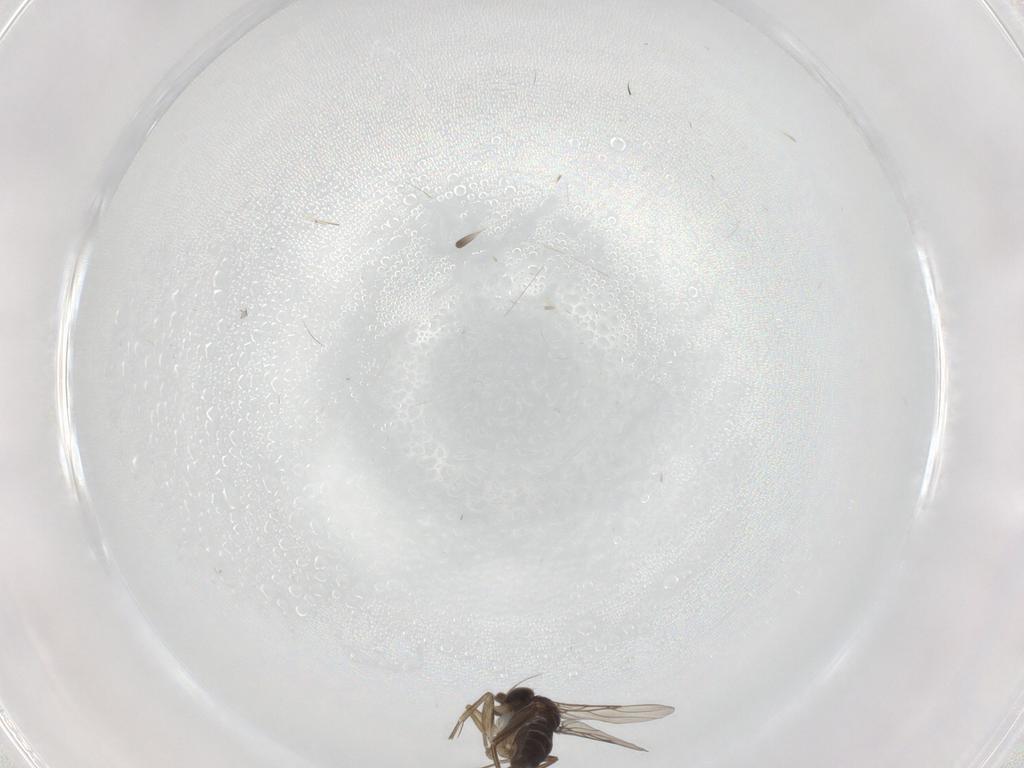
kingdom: Animalia
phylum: Arthropoda
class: Insecta
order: Diptera
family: Phoridae
